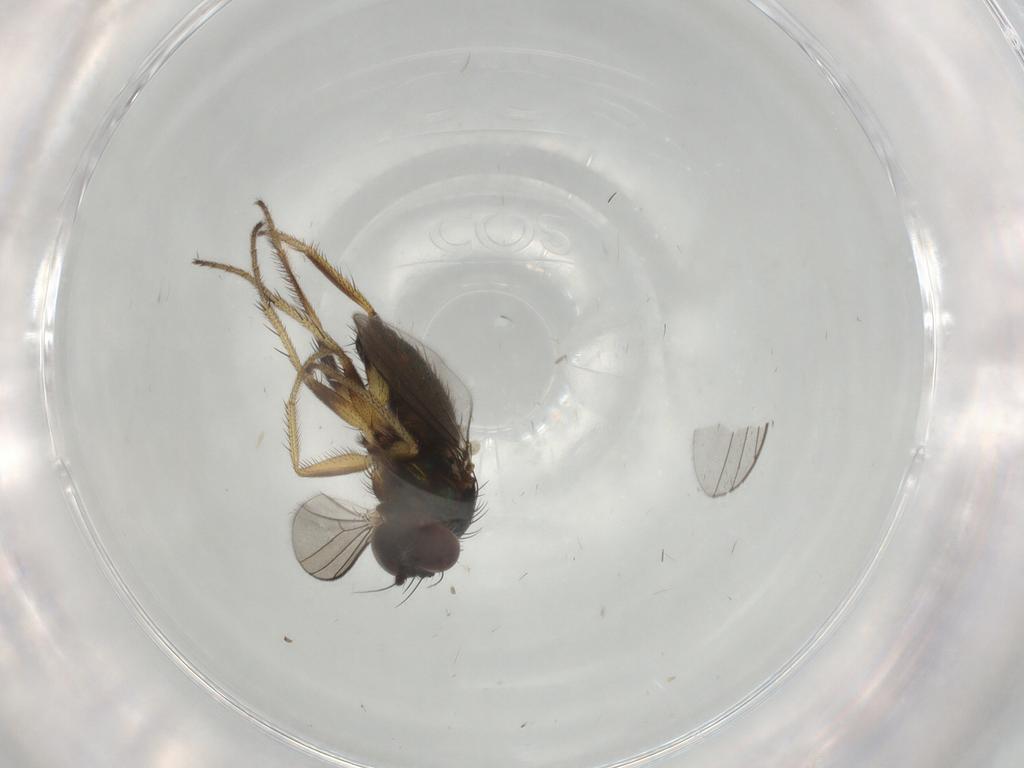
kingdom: Animalia
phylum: Arthropoda
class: Insecta
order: Diptera
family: Dolichopodidae
